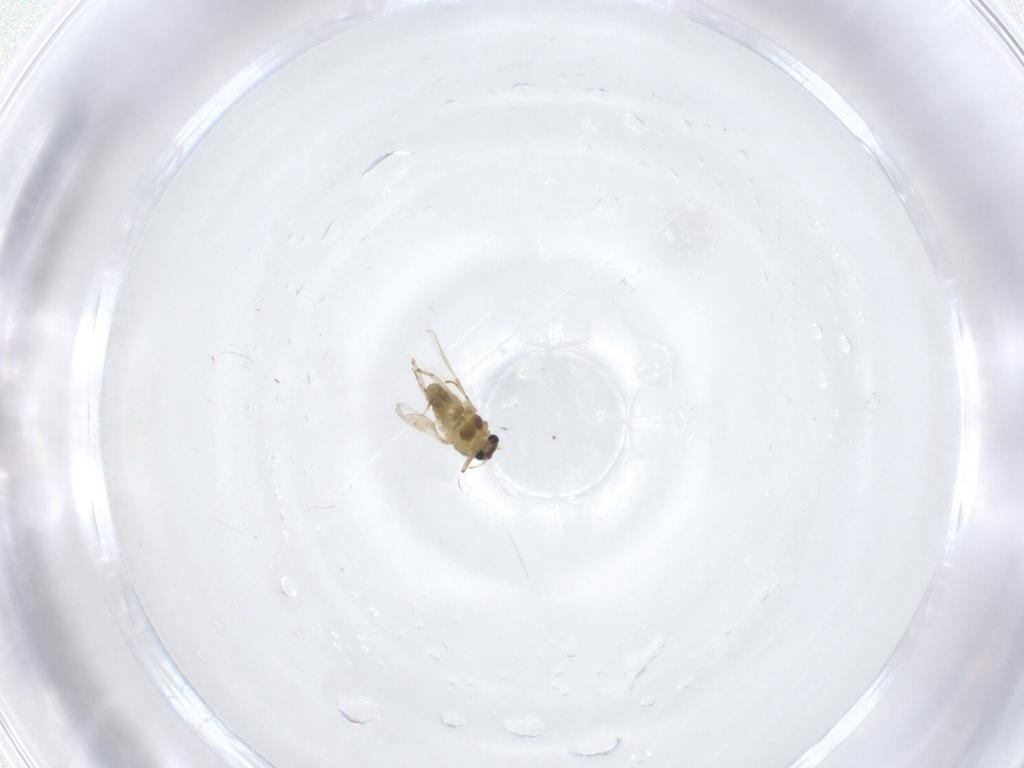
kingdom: Animalia
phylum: Arthropoda
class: Insecta
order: Diptera
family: Chironomidae
